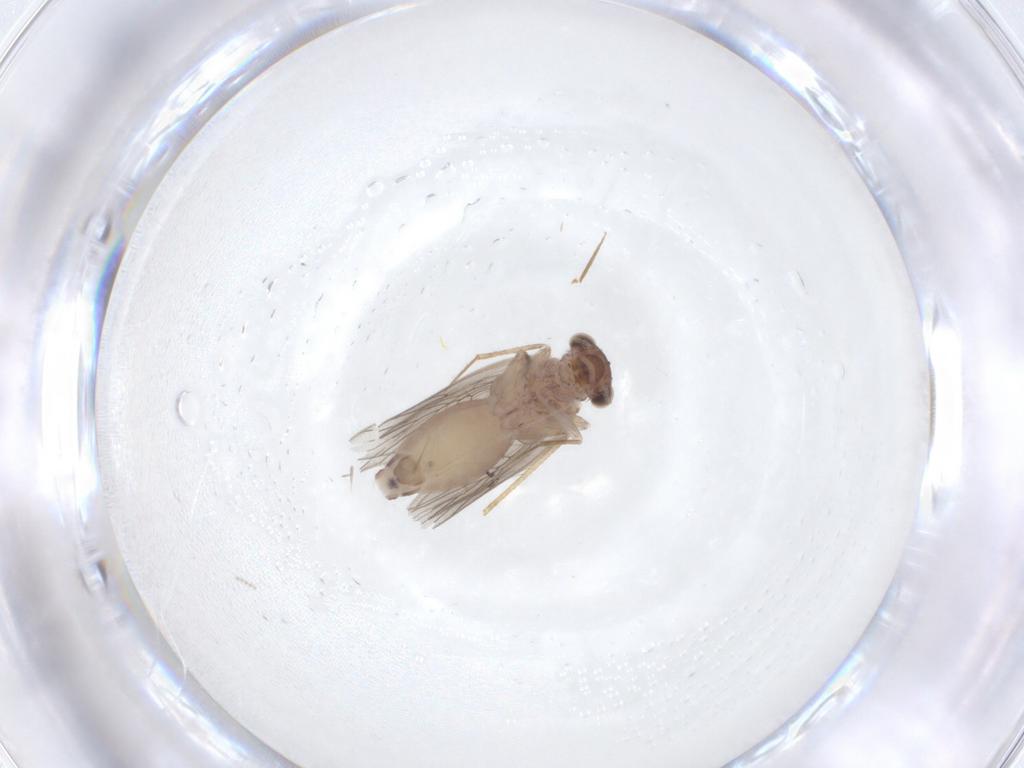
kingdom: Animalia
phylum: Arthropoda
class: Insecta
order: Psocodea
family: Lepidopsocidae
